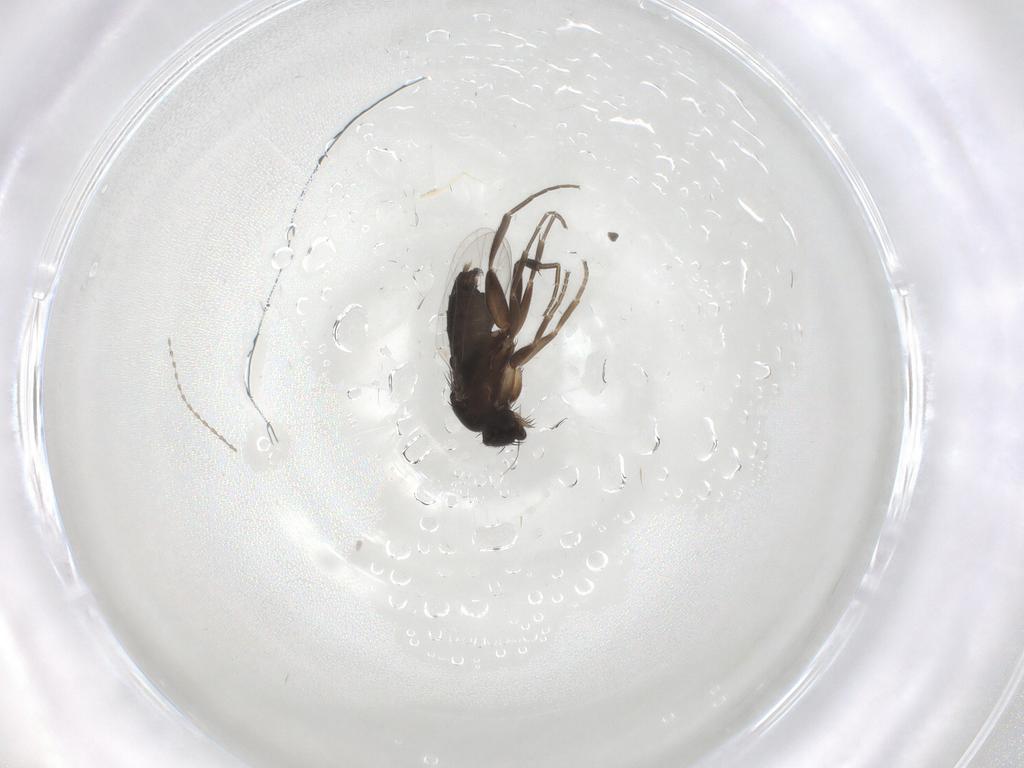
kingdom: Animalia
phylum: Arthropoda
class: Insecta
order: Diptera
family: Phoridae
